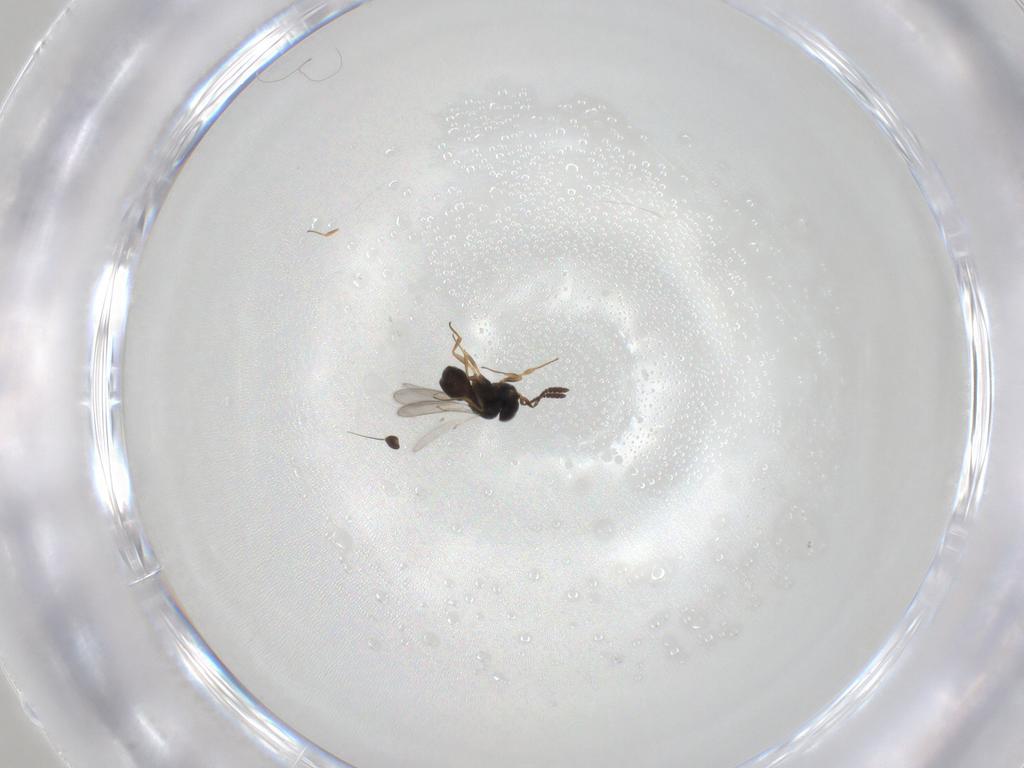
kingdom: Animalia
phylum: Arthropoda
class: Insecta
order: Hymenoptera
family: Scelionidae
